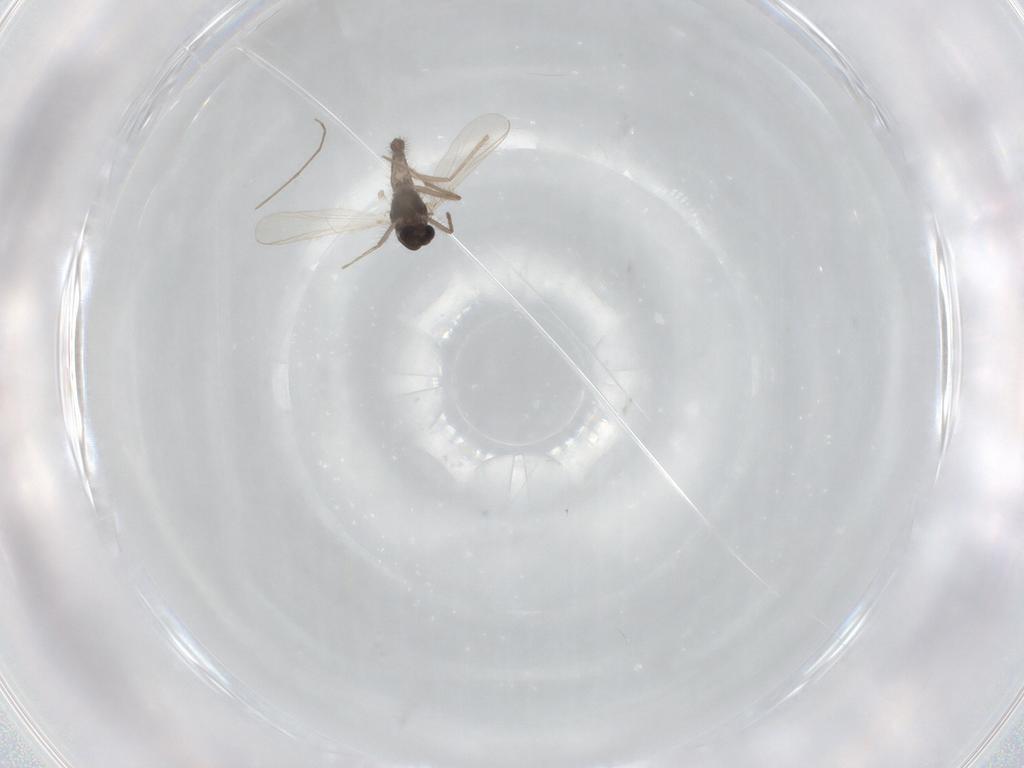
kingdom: Animalia
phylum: Arthropoda
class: Insecta
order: Diptera
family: Chironomidae
